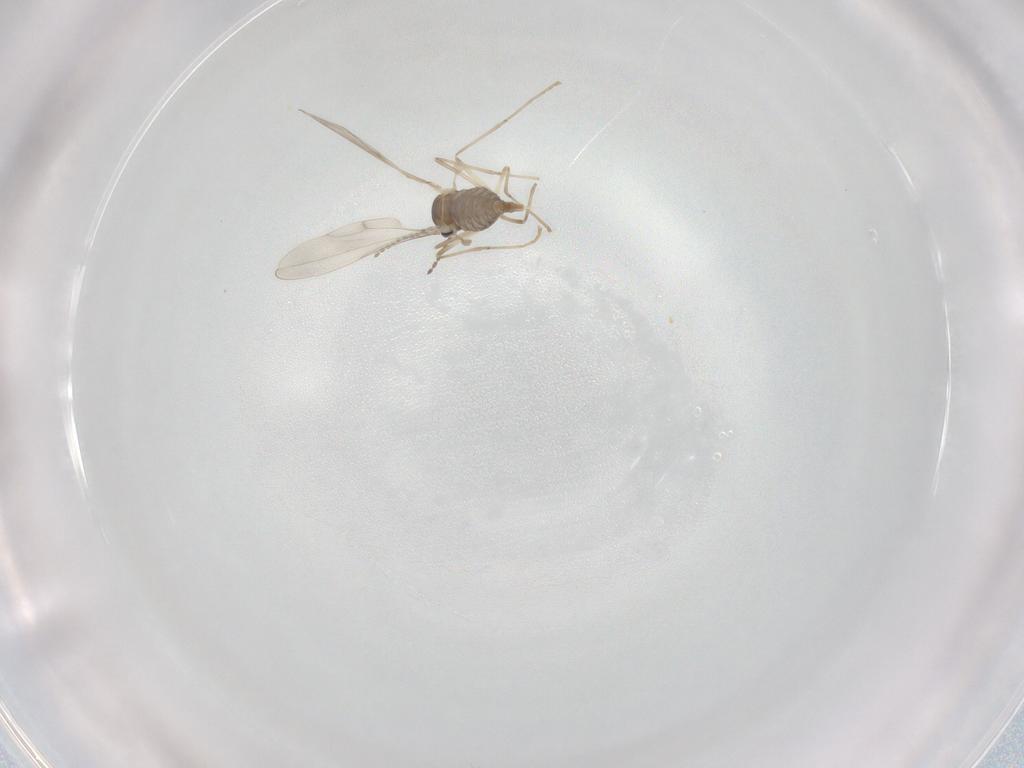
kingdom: Animalia
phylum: Arthropoda
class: Insecta
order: Diptera
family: Cecidomyiidae
